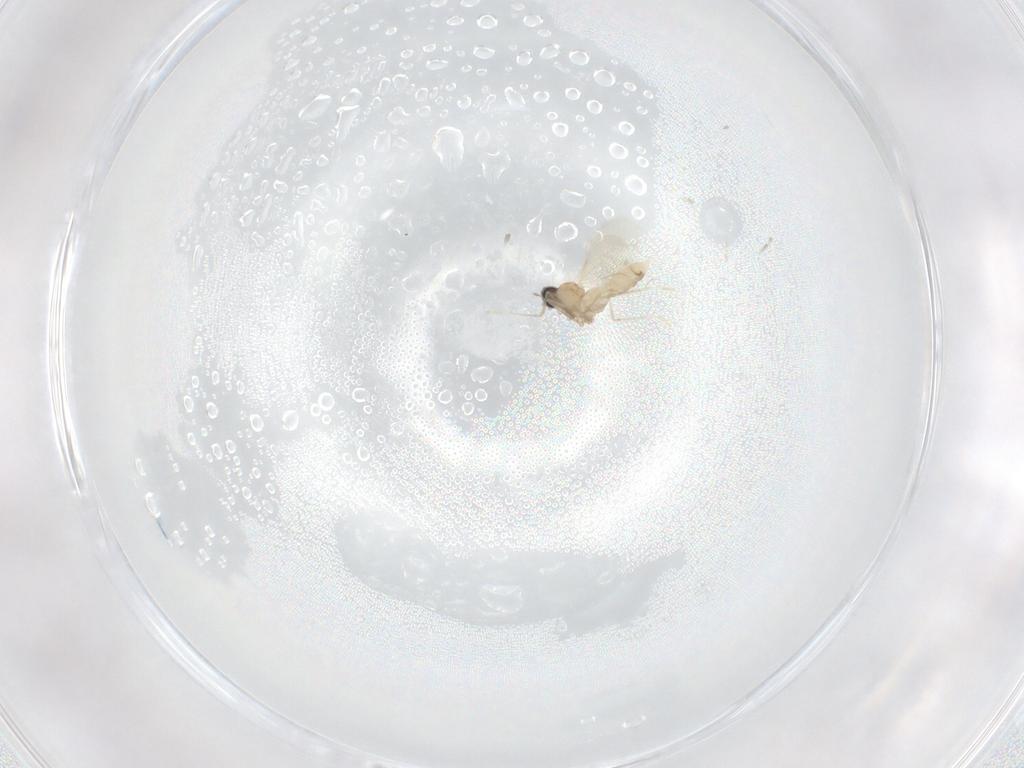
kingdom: Animalia
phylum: Arthropoda
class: Insecta
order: Diptera
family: Cecidomyiidae
